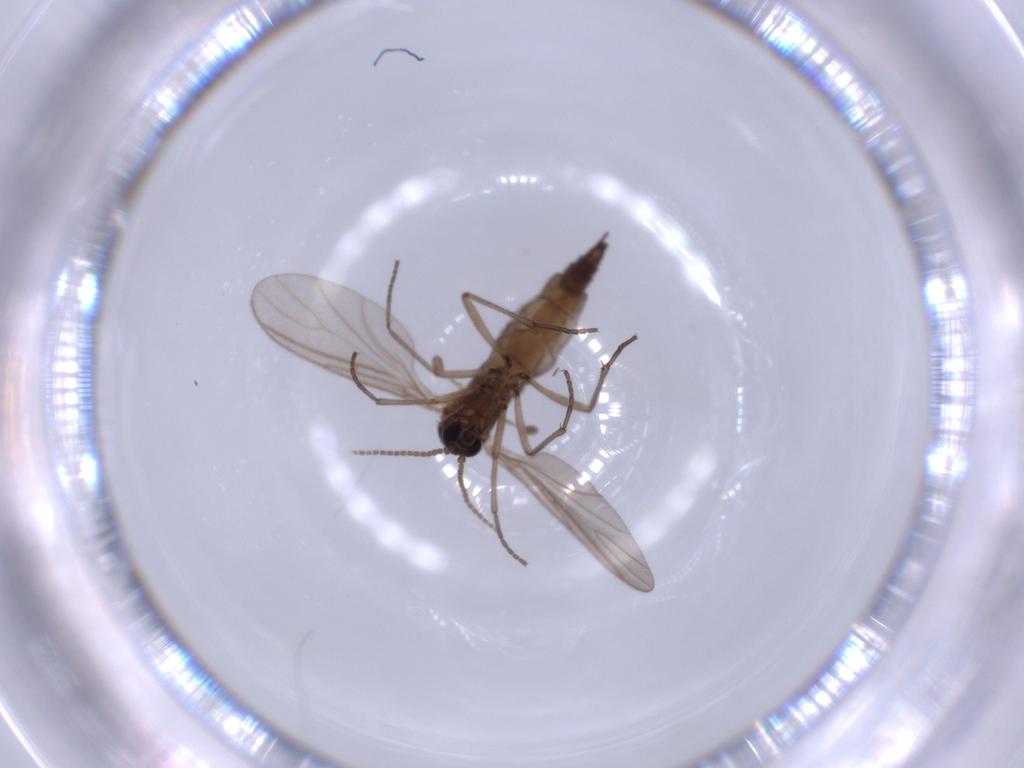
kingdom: Animalia
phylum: Arthropoda
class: Insecta
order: Diptera
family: Sciaridae
